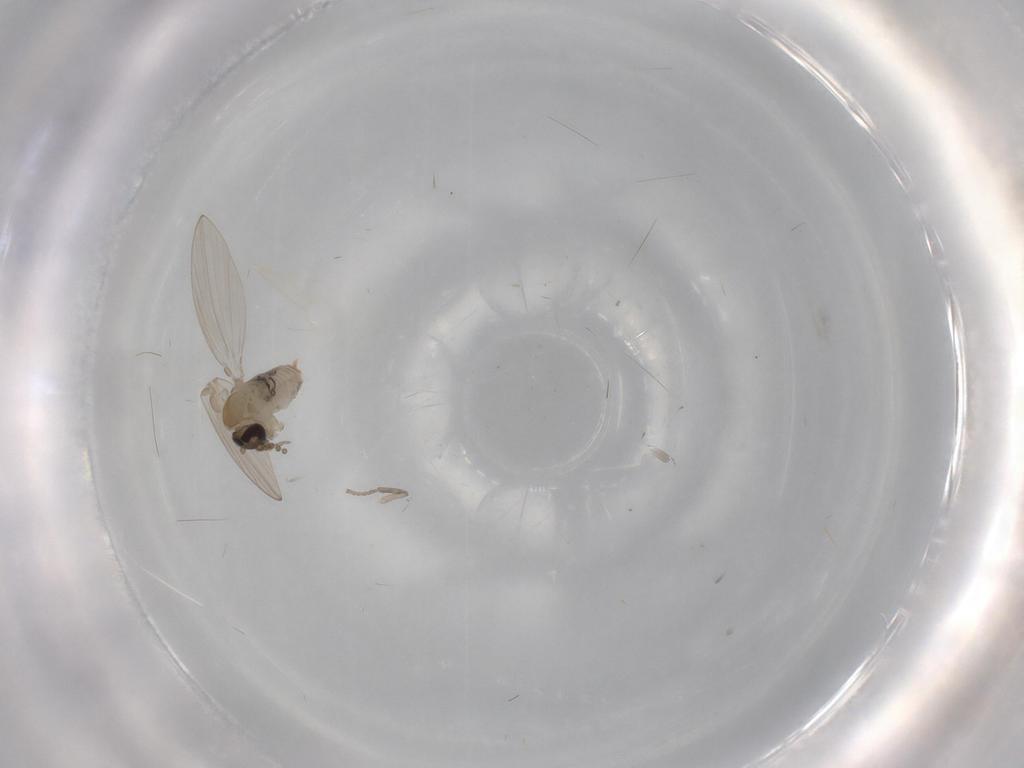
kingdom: Animalia
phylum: Arthropoda
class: Insecta
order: Diptera
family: Psychodidae
